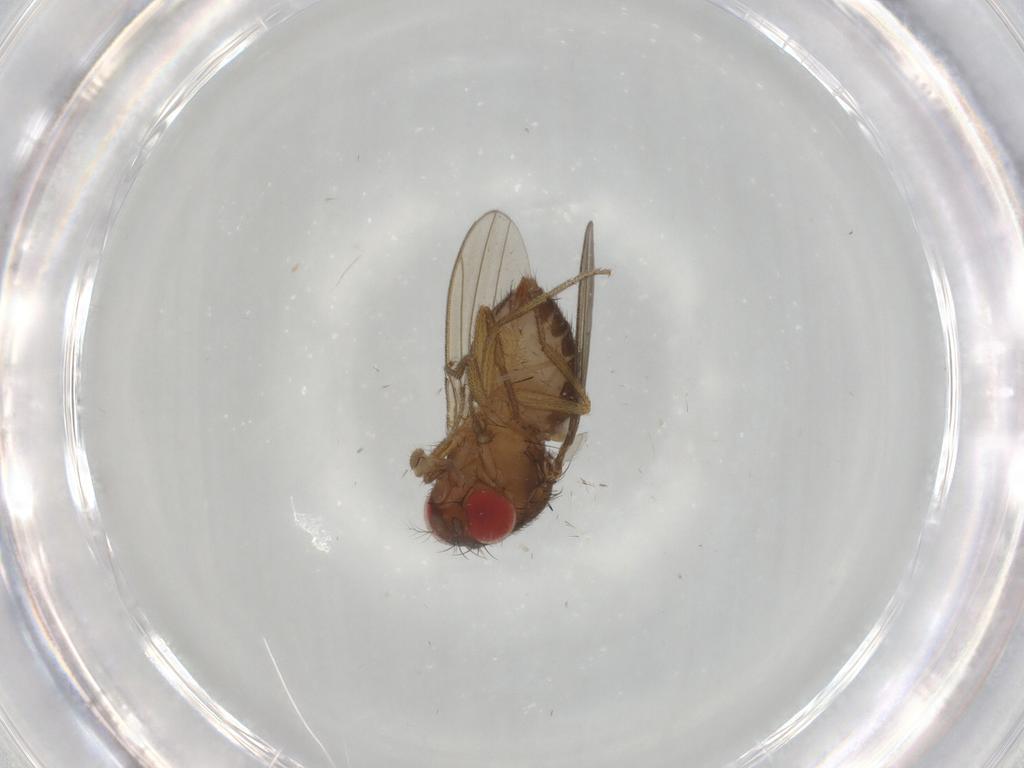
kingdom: Animalia
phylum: Arthropoda
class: Insecta
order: Diptera
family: Drosophilidae
